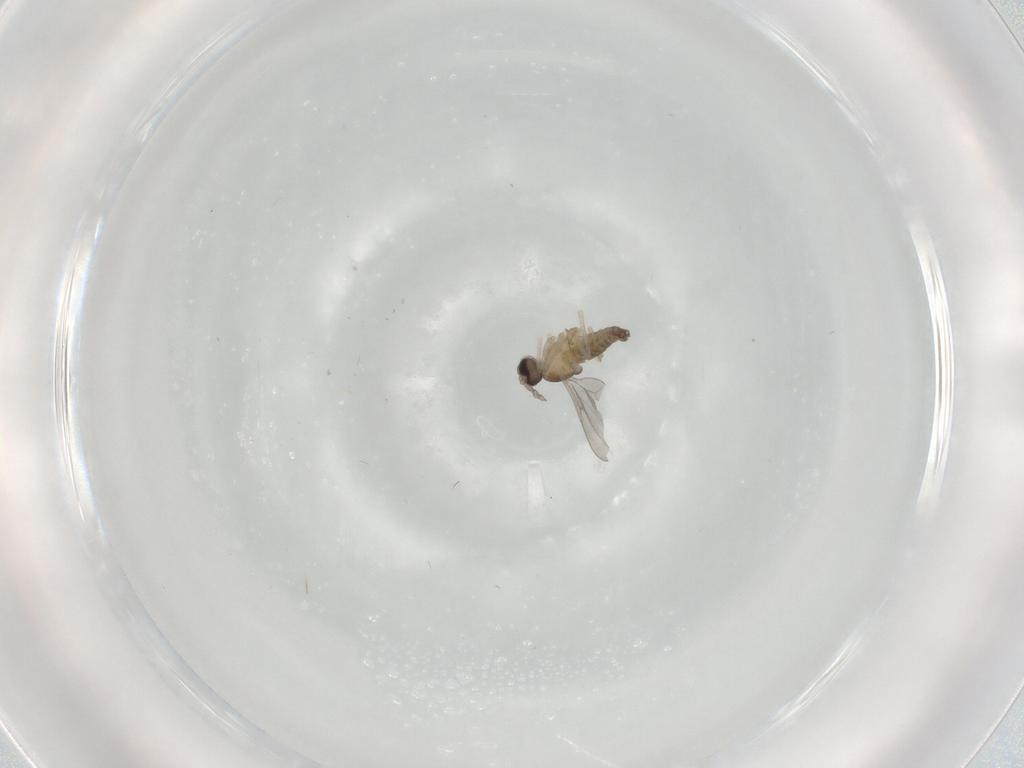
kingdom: Animalia
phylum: Arthropoda
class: Insecta
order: Diptera
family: Cecidomyiidae
